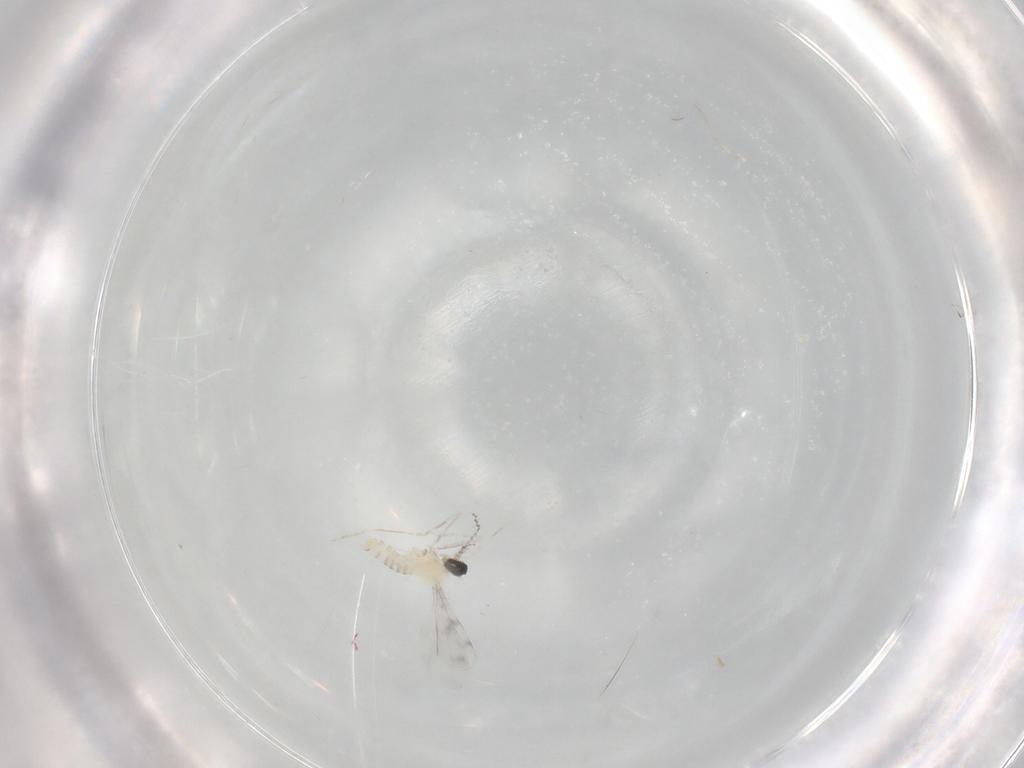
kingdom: Animalia
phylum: Arthropoda
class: Insecta
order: Diptera
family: Cecidomyiidae
